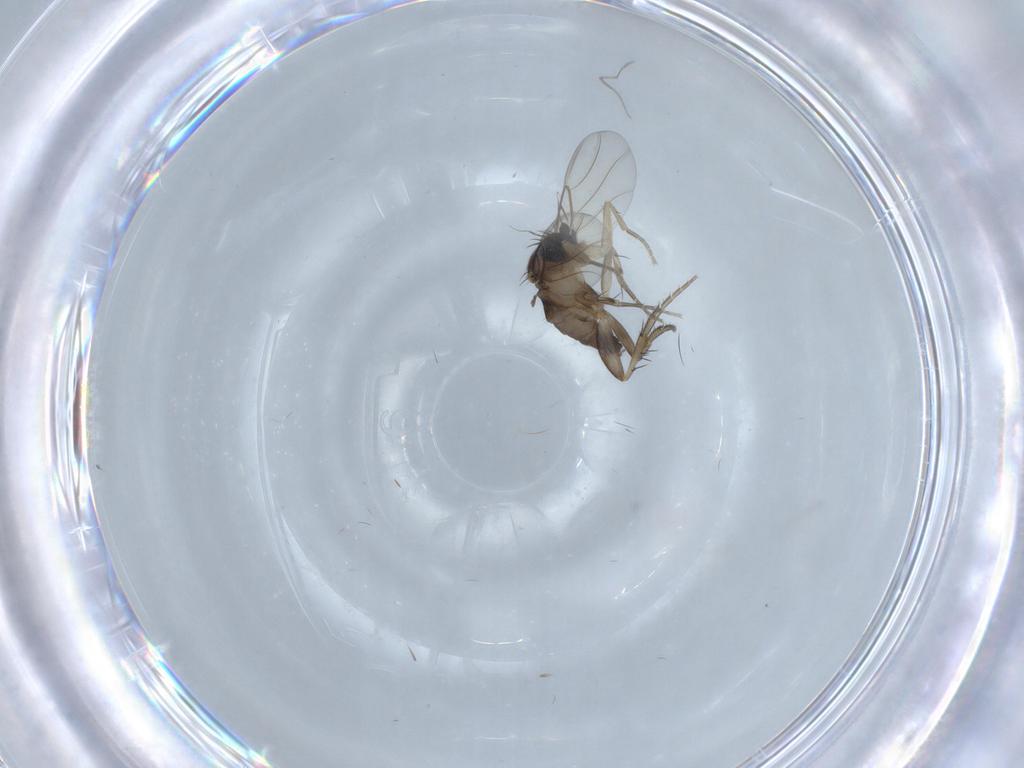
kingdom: Animalia
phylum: Arthropoda
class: Insecta
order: Diptera
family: Phoridae
